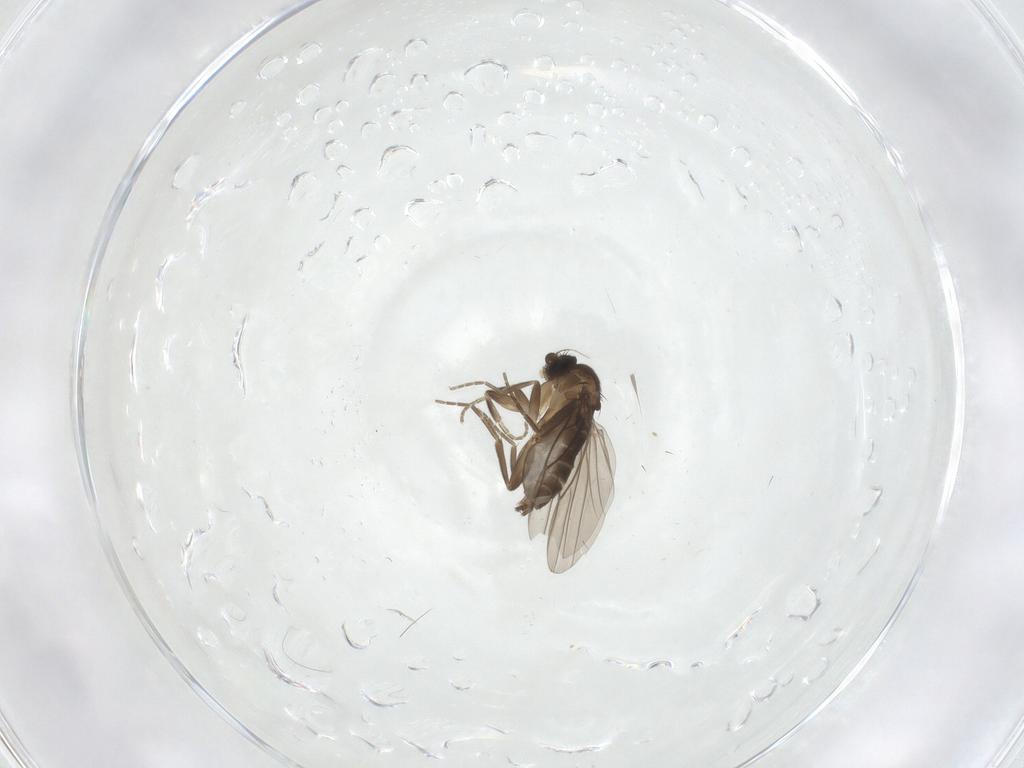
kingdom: Animalia
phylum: Arthropoda
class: Insecta
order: Diptera
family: Phoridae
